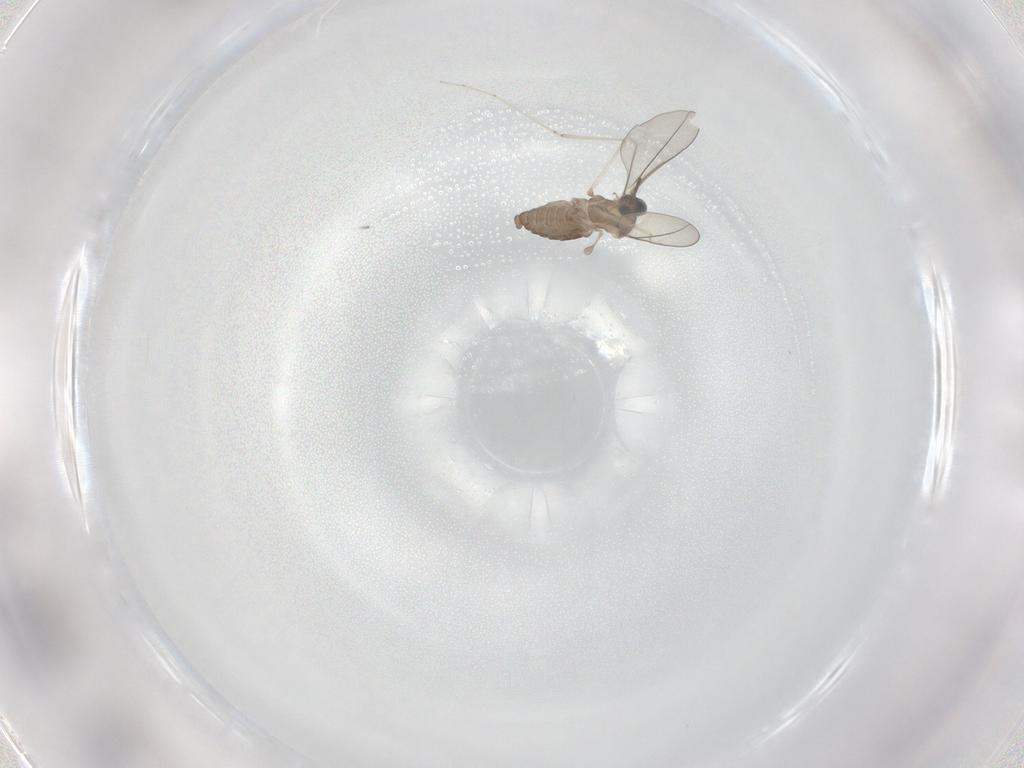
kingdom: Animalia
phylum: Arthropoda
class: Insecta
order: Diptera
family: Cecidomyiidae
